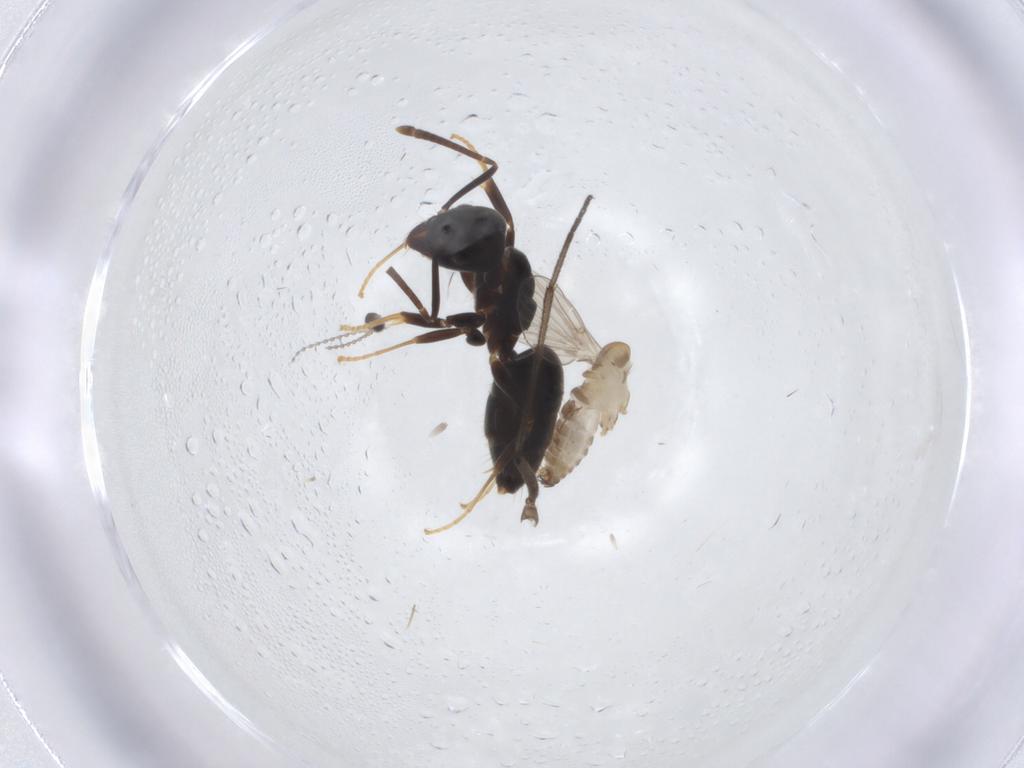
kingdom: Animalia
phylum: Arthropoda
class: Insecta
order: Hymenoptera
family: Formicidae
